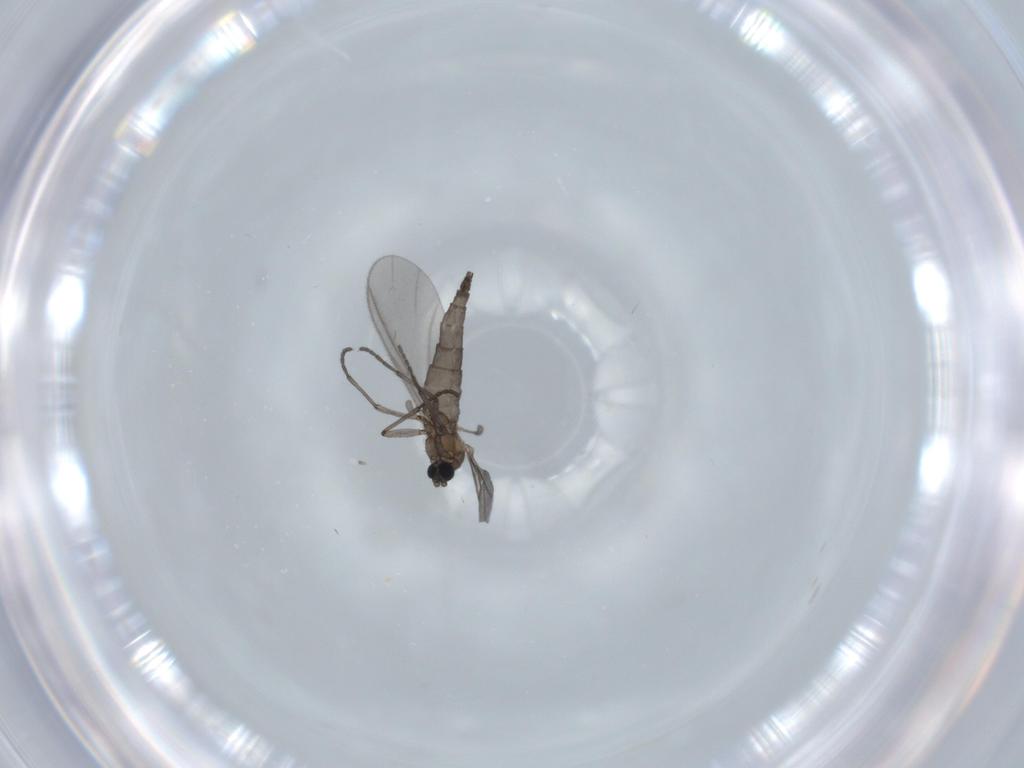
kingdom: Animalia
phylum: Arthropoda
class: Insecta
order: Diptera
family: Sciaridae
